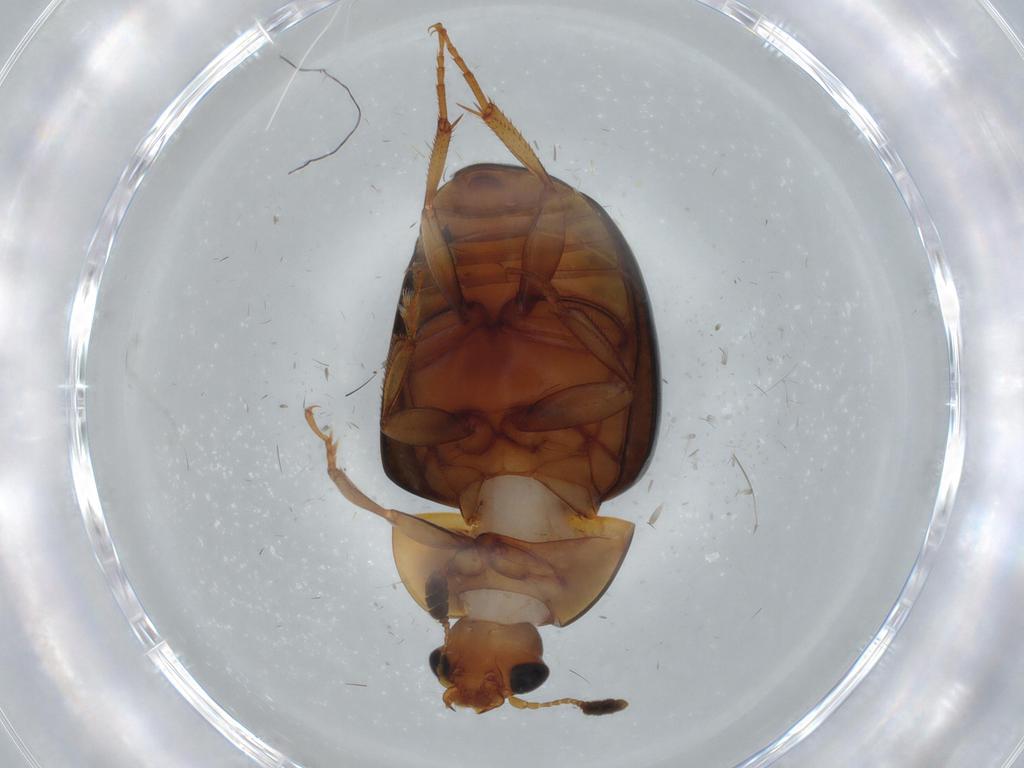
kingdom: Animalia
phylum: Arthropoda
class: Insecta
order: Coleoptera
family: Nitidulidae
